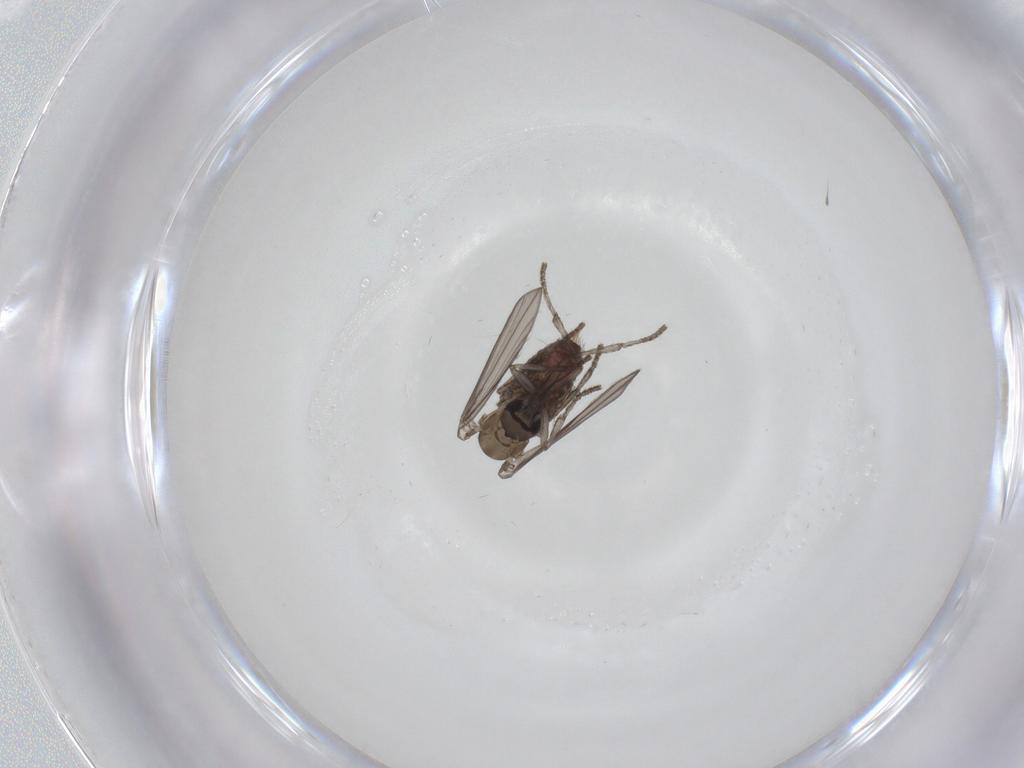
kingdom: Animalia
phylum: Arthropoda
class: Insecta
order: Diptera
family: Psychodidae
